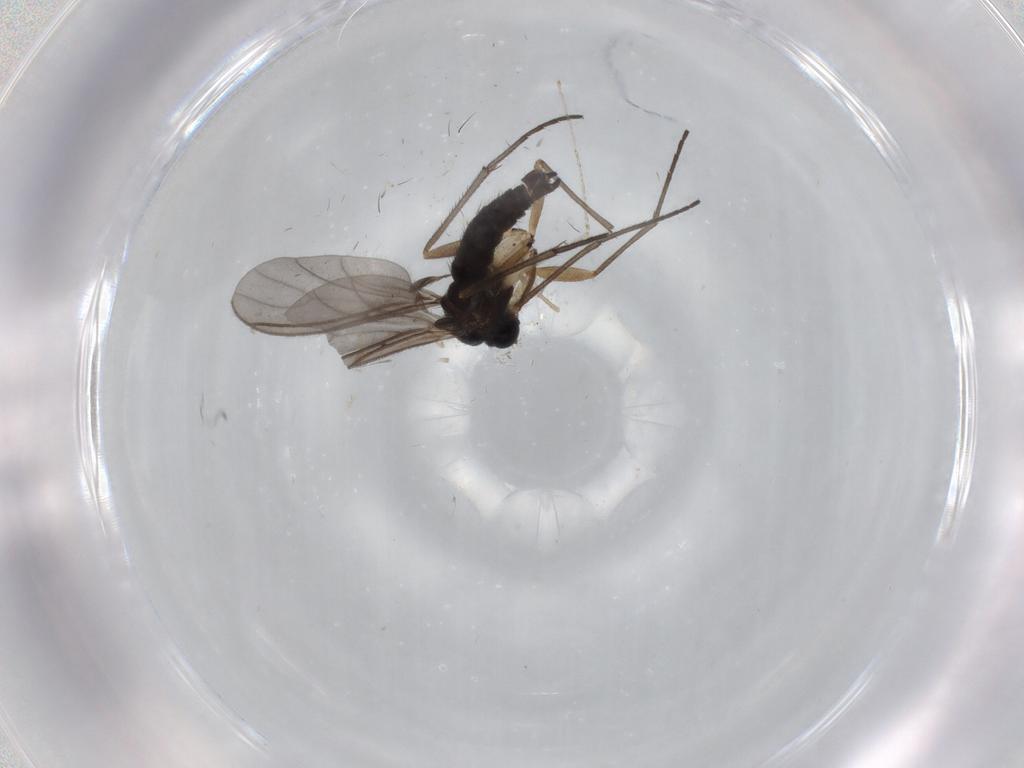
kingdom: Animalia
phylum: Arthropoda
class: Insecta
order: Diptera
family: Sciaridae
